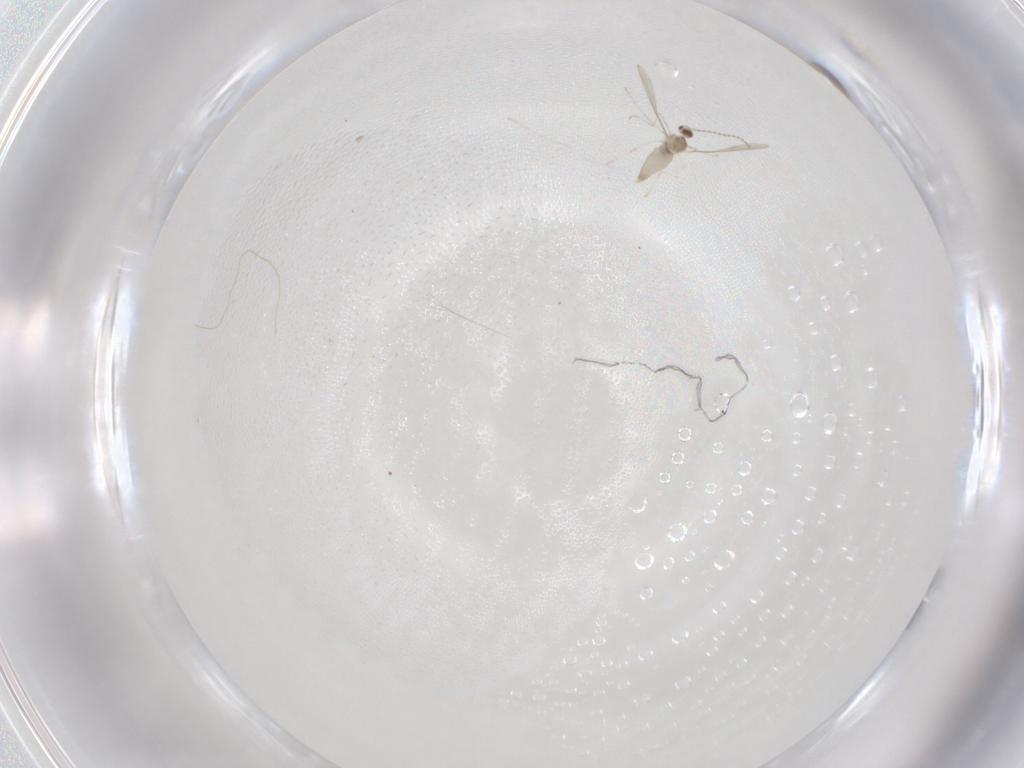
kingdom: Animalia
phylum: Arthropoda
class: Insecta
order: Diptera
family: Cecidomyiidae
